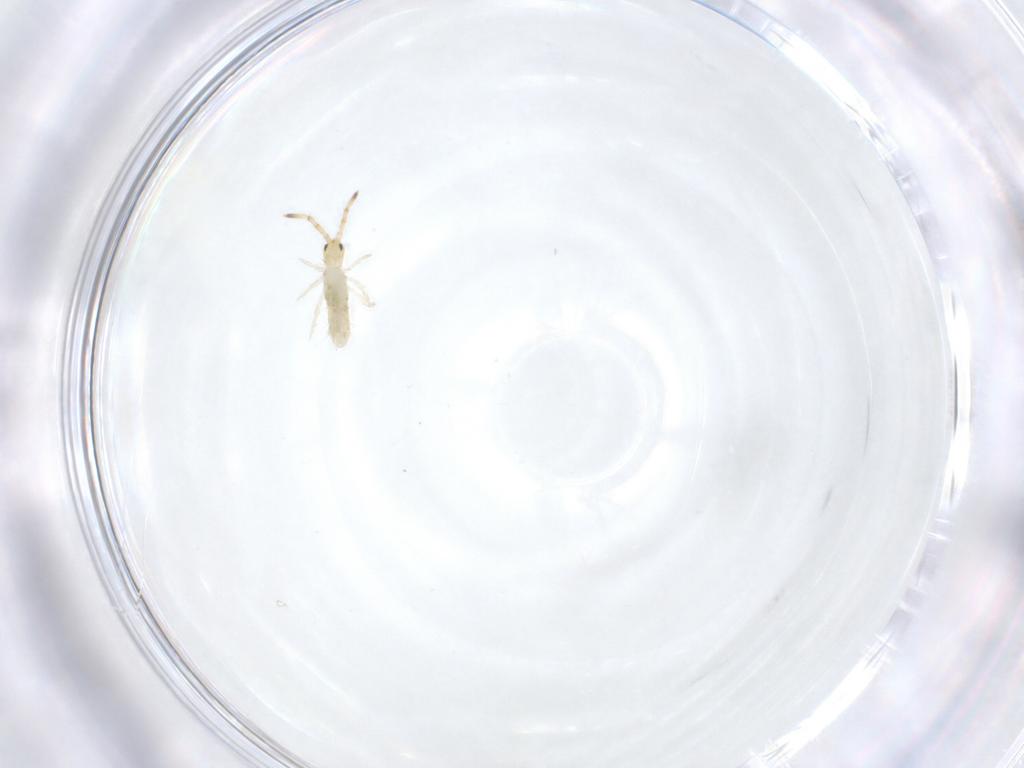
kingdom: Animalia
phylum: Arthropoda
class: Collembola
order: Entomobryomorpha
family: Entomobryidae
